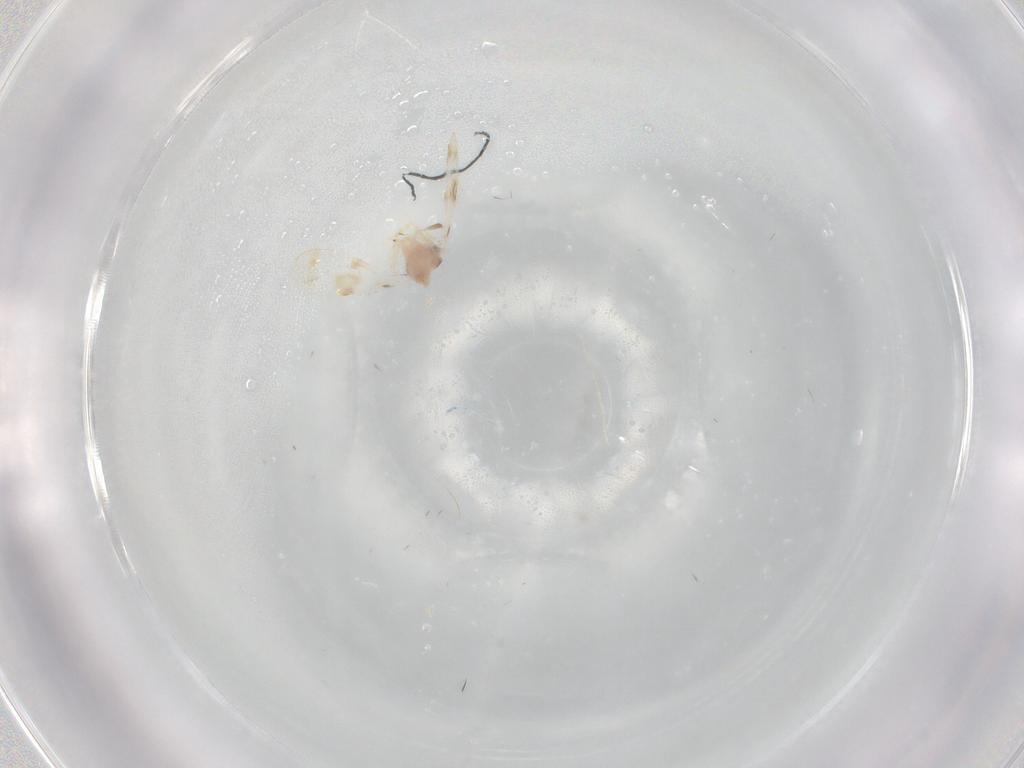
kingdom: Animalia
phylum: Arthropoda
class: Insecta
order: Hemiptera
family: Aleyrodidae
